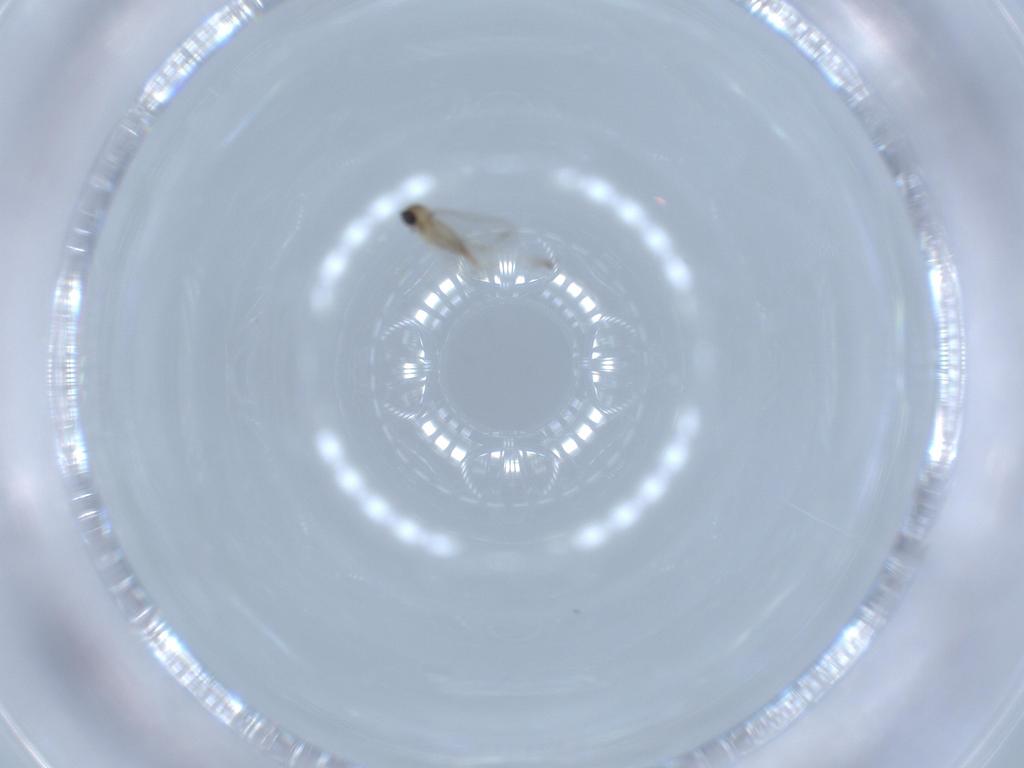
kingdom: Animalia
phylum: Arthropoda
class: Insecta
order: Diptera
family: Cecidomyiidae
